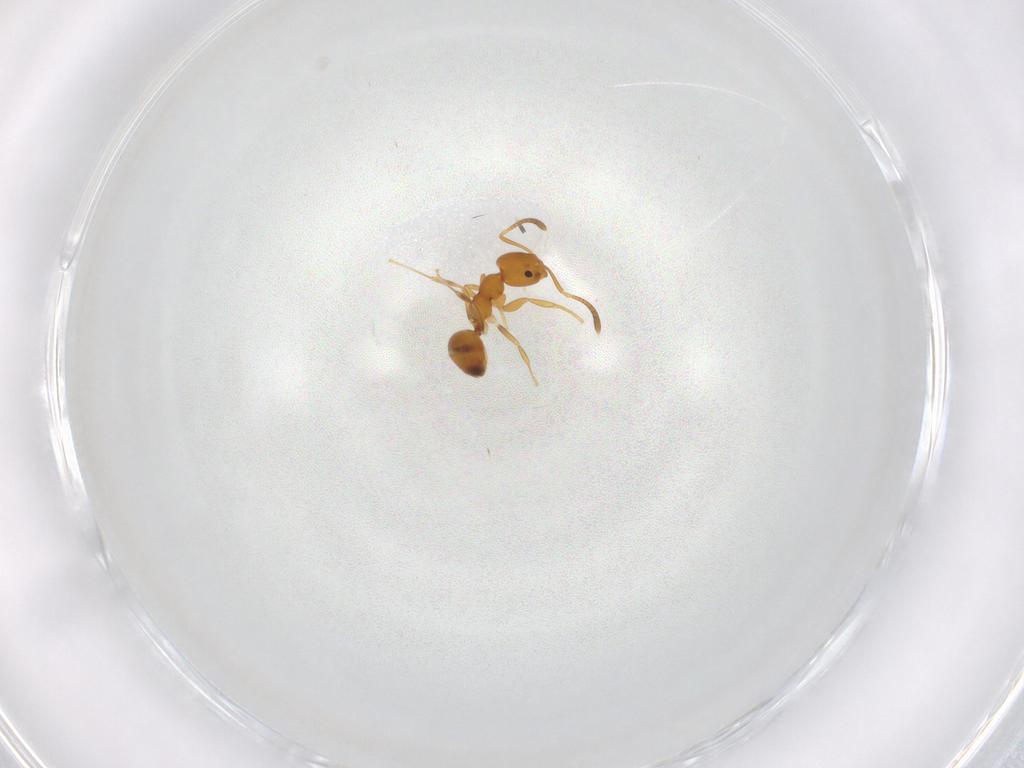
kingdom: Animalia
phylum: Arthropoda
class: Insecta
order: Hymenoptera
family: Formicidae
